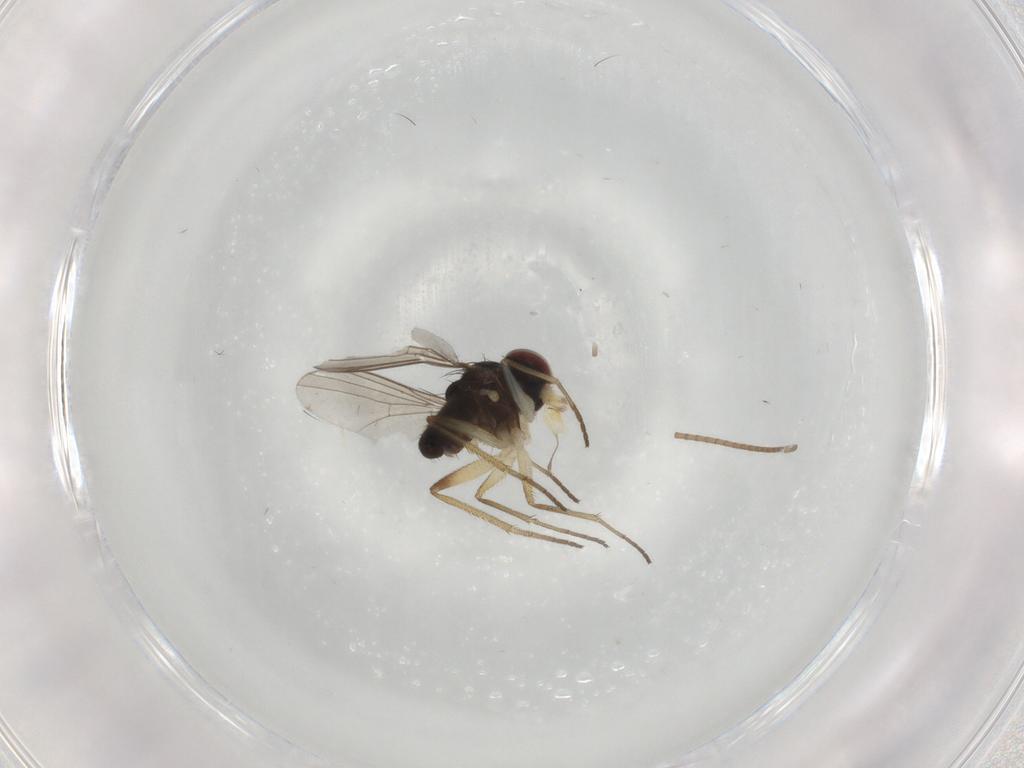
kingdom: Animalia
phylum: Arthropoda
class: Insecta
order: Diptera
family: Dolichopodidae
